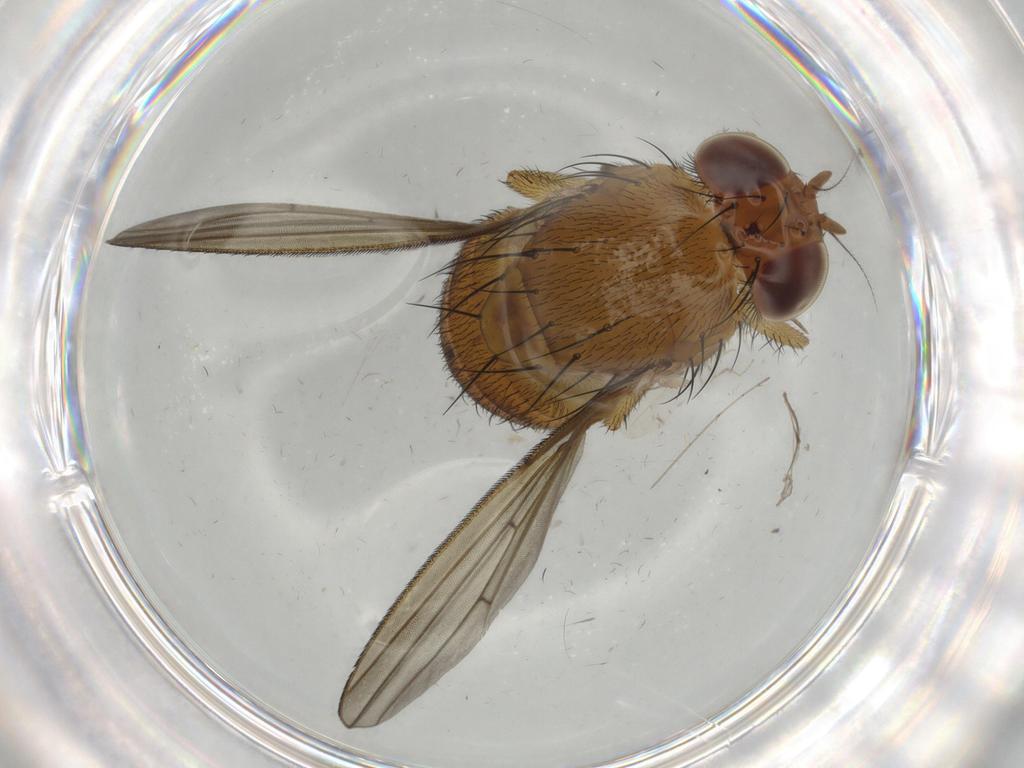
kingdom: Animalia
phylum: Arthropoda
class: Insecta
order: Diptera
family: Chironomidae
